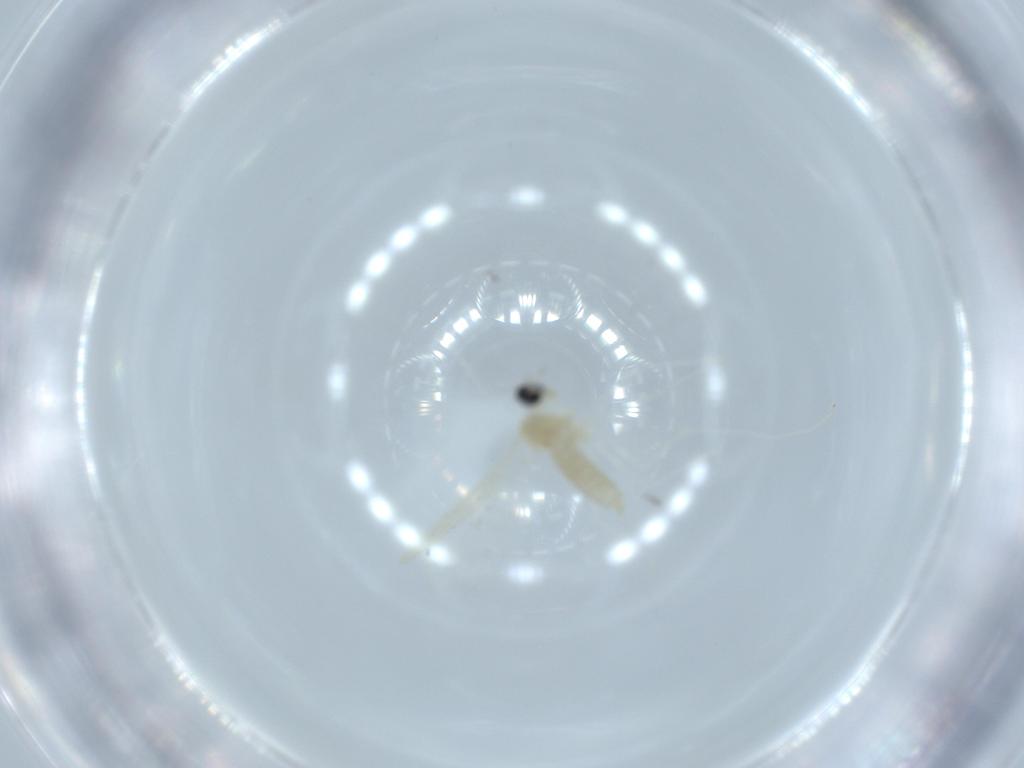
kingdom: Animalia
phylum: Arthropoda
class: Insecta
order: Diptera
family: Cecidomyiidae
